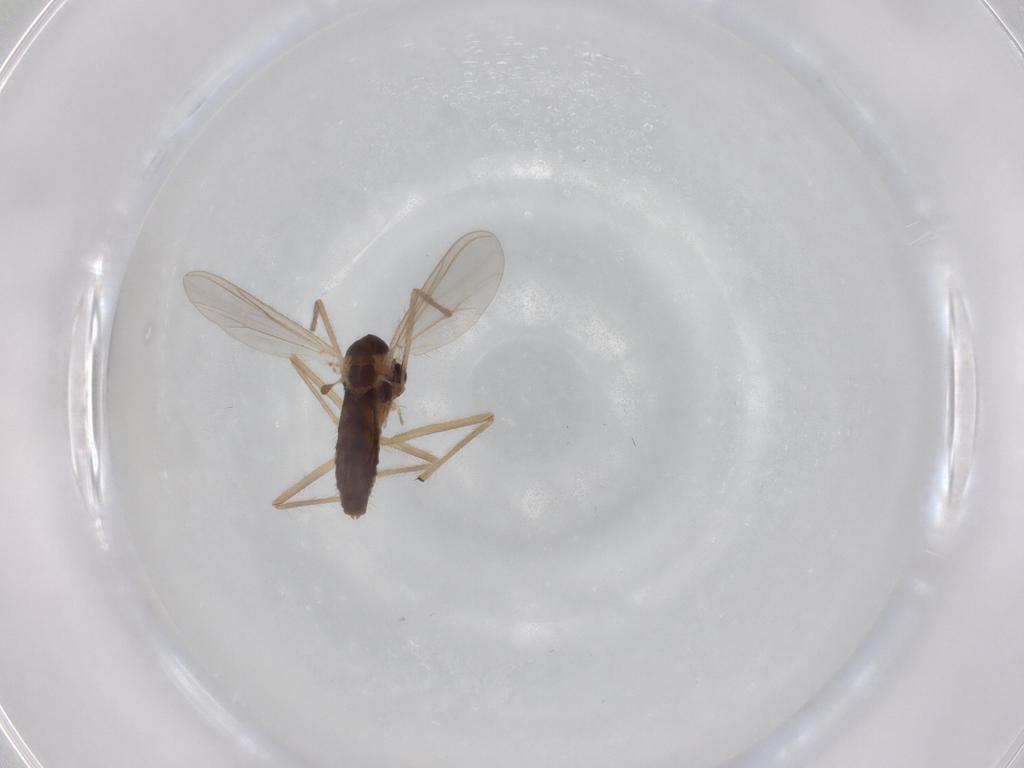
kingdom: Animalia
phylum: Arthropoda
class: Insecta
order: Diptera
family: Chironomidae
